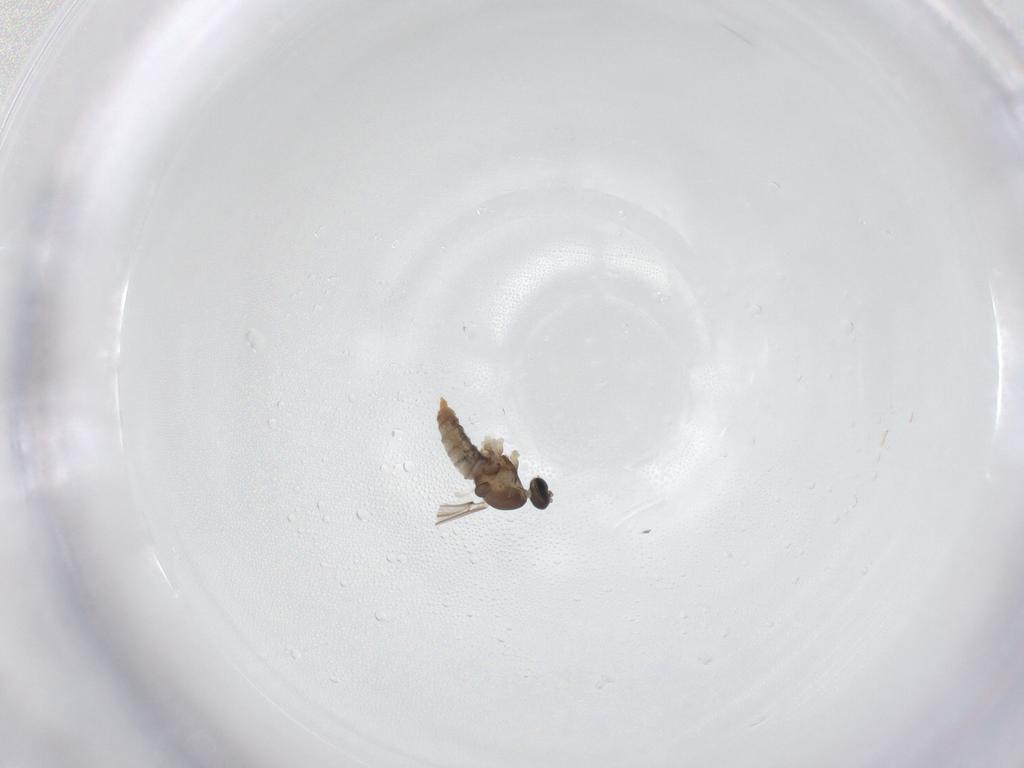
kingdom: Animalia
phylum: Arthropoda
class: Insecta
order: Diptera
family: Cecidomyiidae
